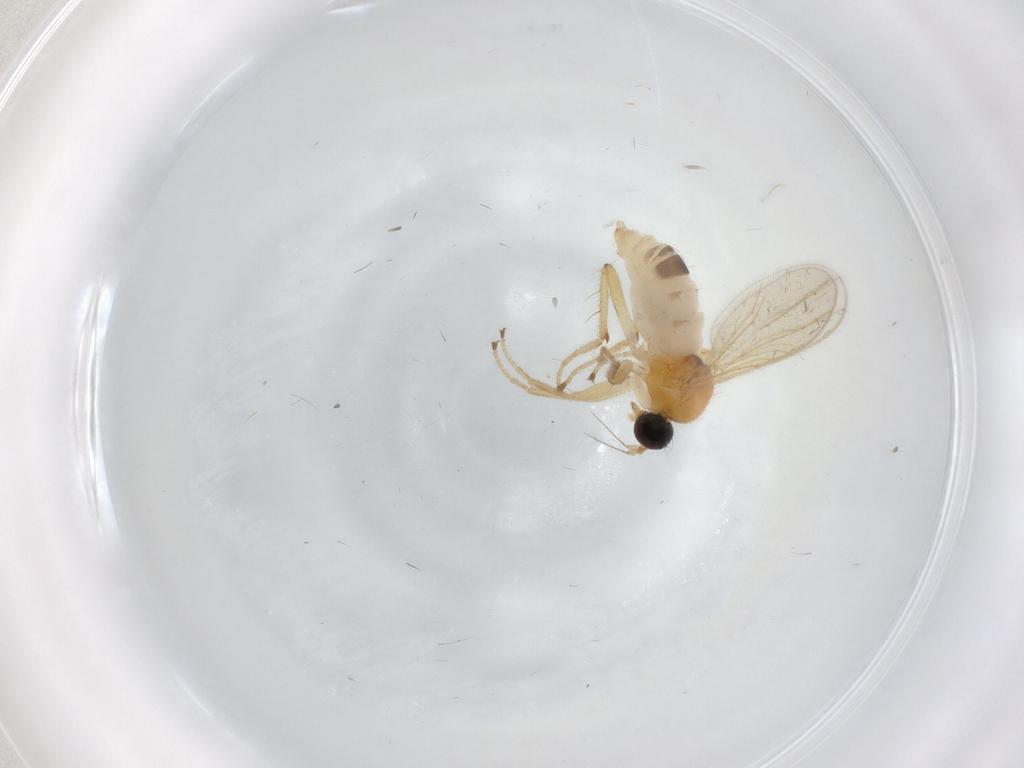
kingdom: Animalia
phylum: Arthropoda
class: Insecta
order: Diptera
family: Hybotidae
